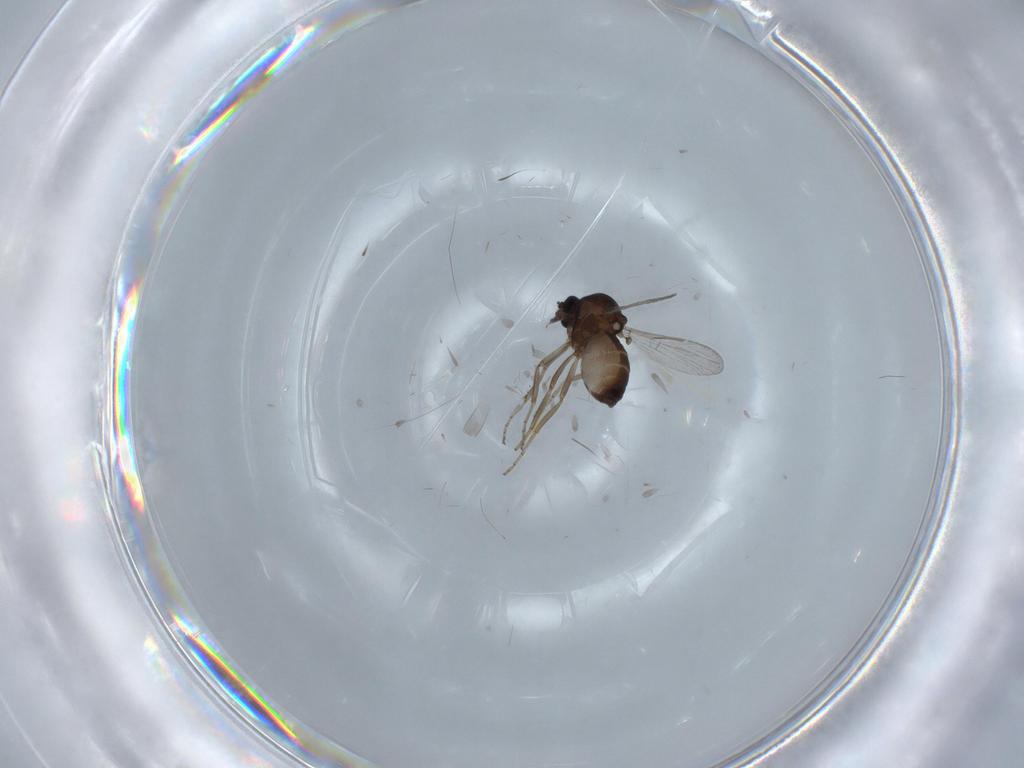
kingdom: Animalia
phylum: Arthropoda
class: Insecta
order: Diptera
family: Ceratopogonidae
